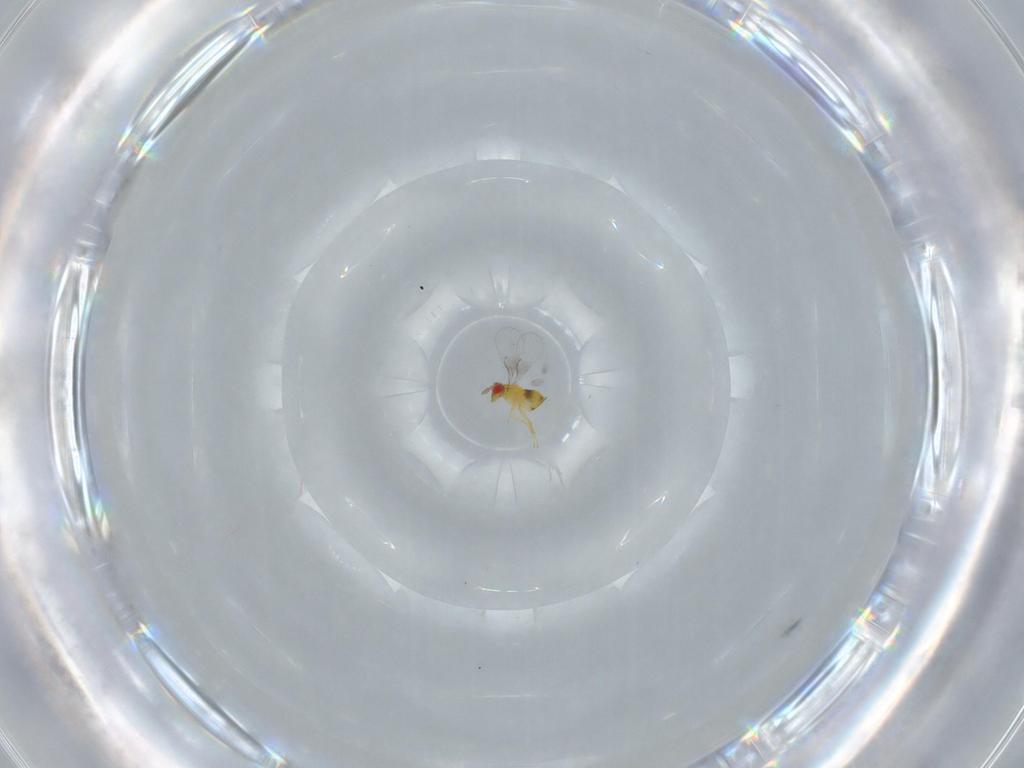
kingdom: Animalia
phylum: Arthropoda
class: Insecta
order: Hymenoptera
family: Trichogrammatidae
